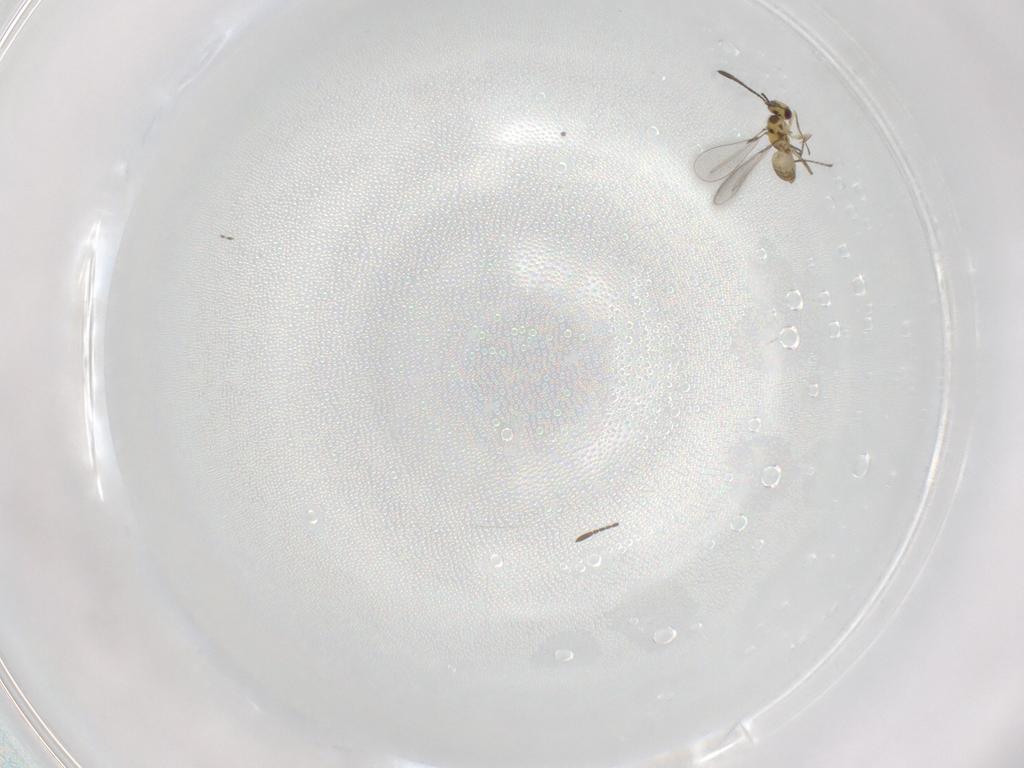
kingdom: Animalia
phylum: Arthropoda
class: Insecta
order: Hymenoptera
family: Mymaridae
